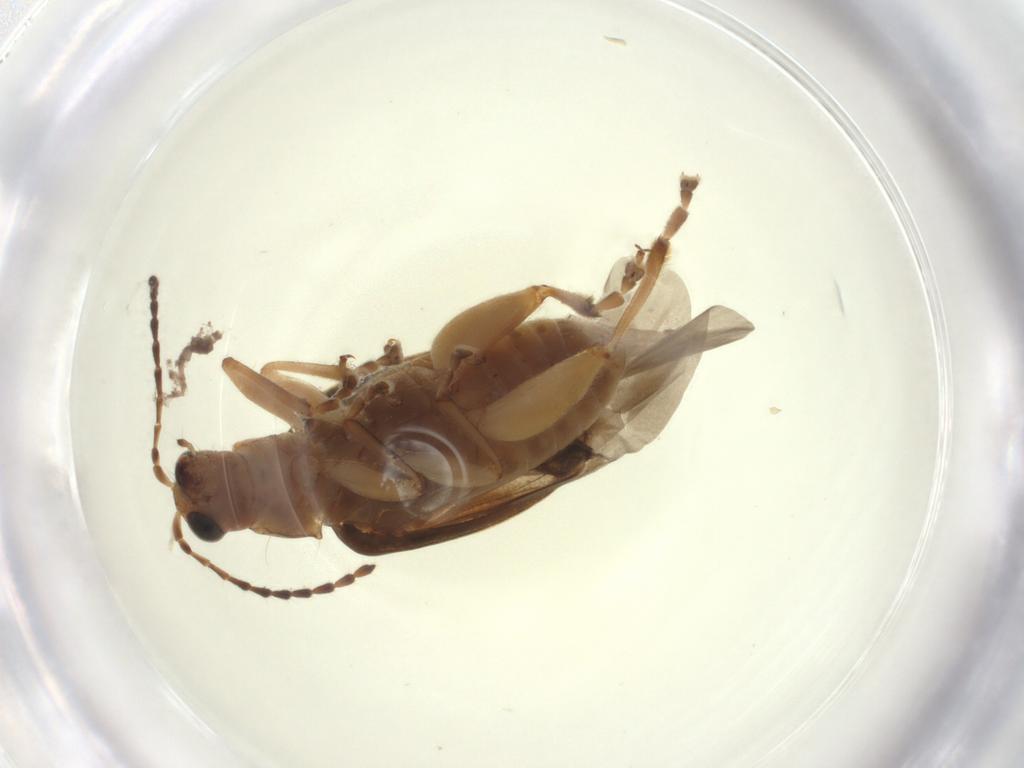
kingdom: Animalia
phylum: Arthropoda
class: Insecta
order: Coleoptera
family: Chrysomelidae
